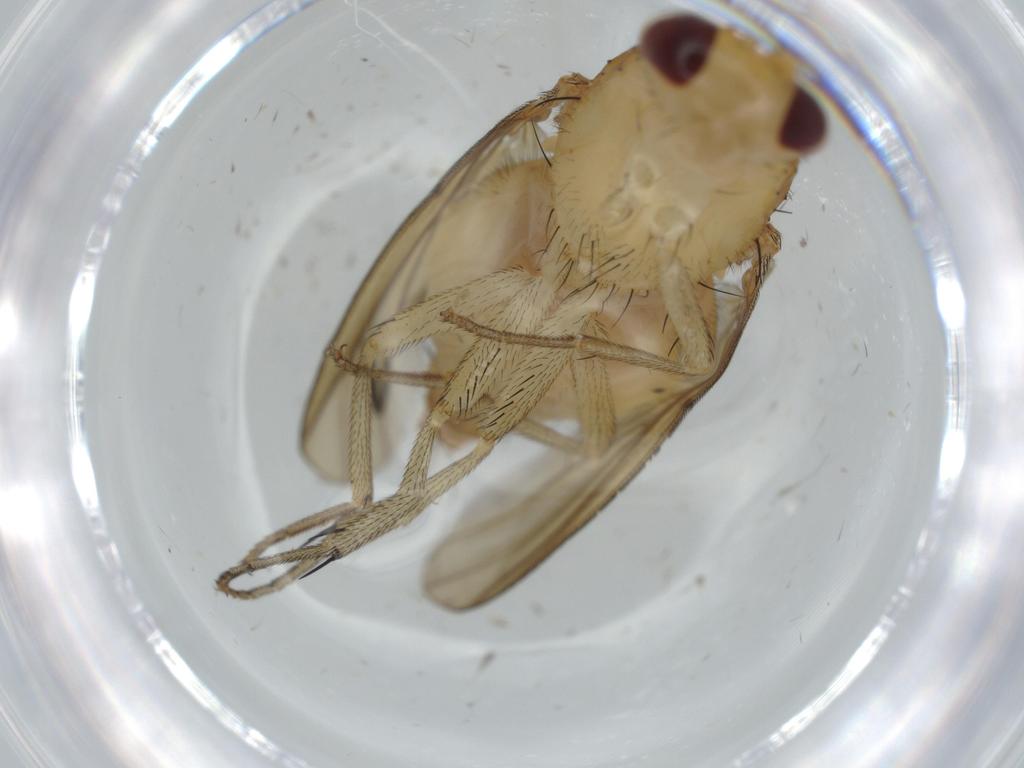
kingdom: Animalia
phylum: Arthropoda
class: Insecta
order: Diptera
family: Milichiidae
